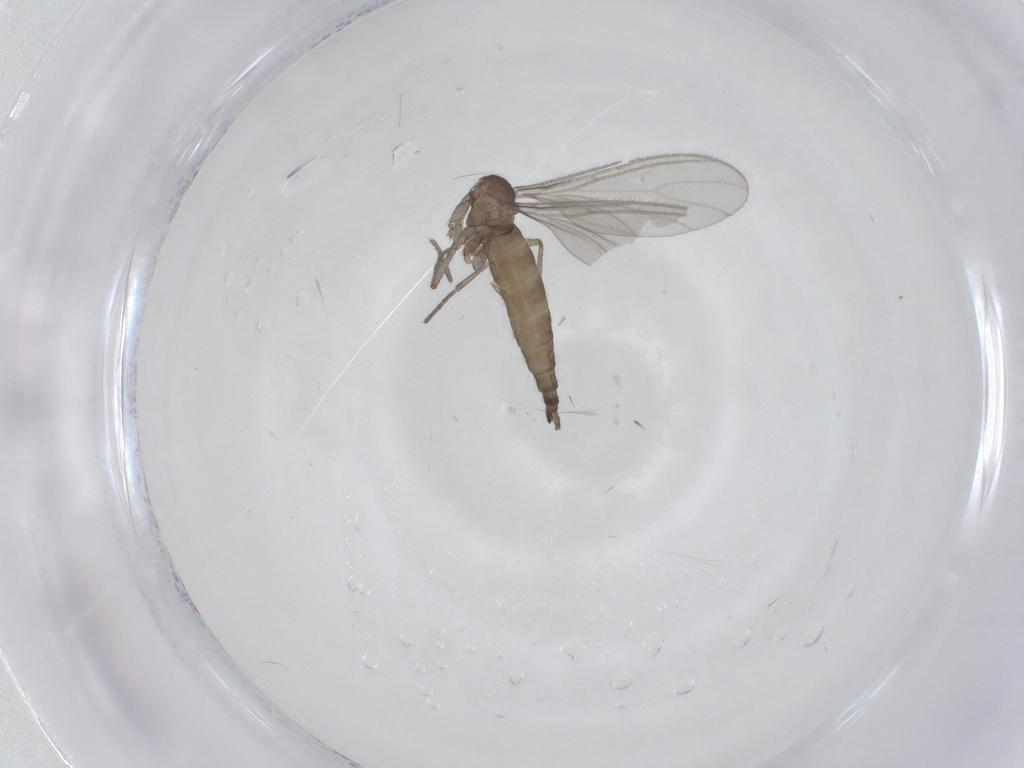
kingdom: Animalia
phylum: Arthropoda
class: Insecta
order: Diptera
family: Sciaridae
